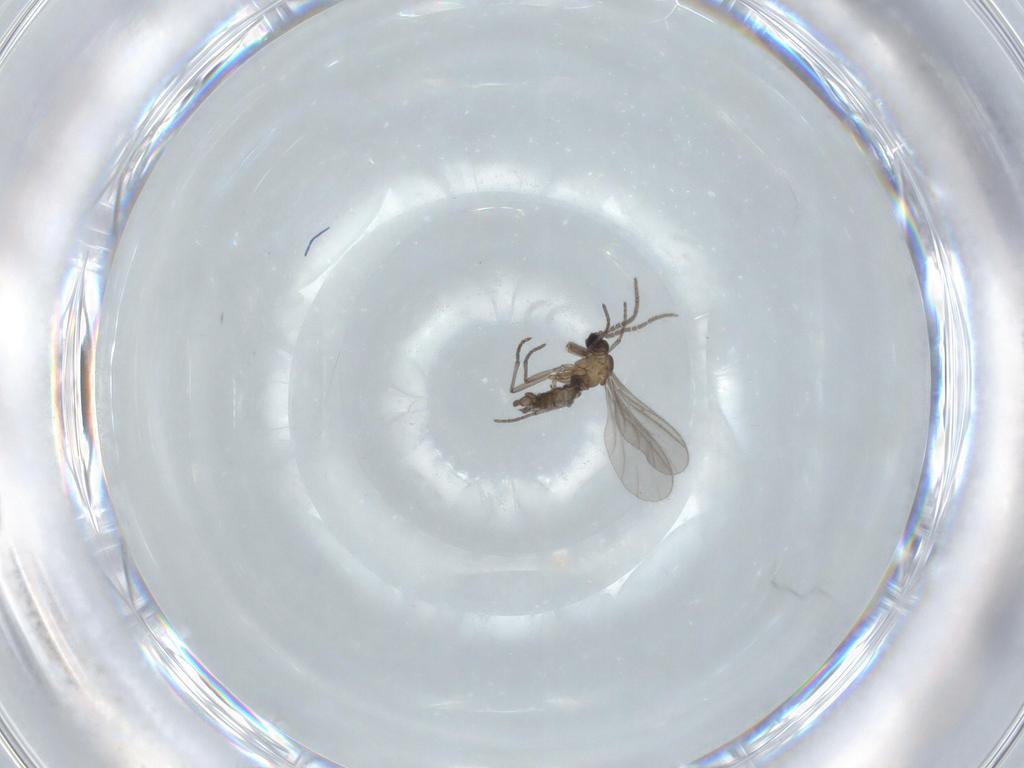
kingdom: Animalia
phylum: Arthropoda
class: Insecta
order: Diptera
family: Sciaridae
